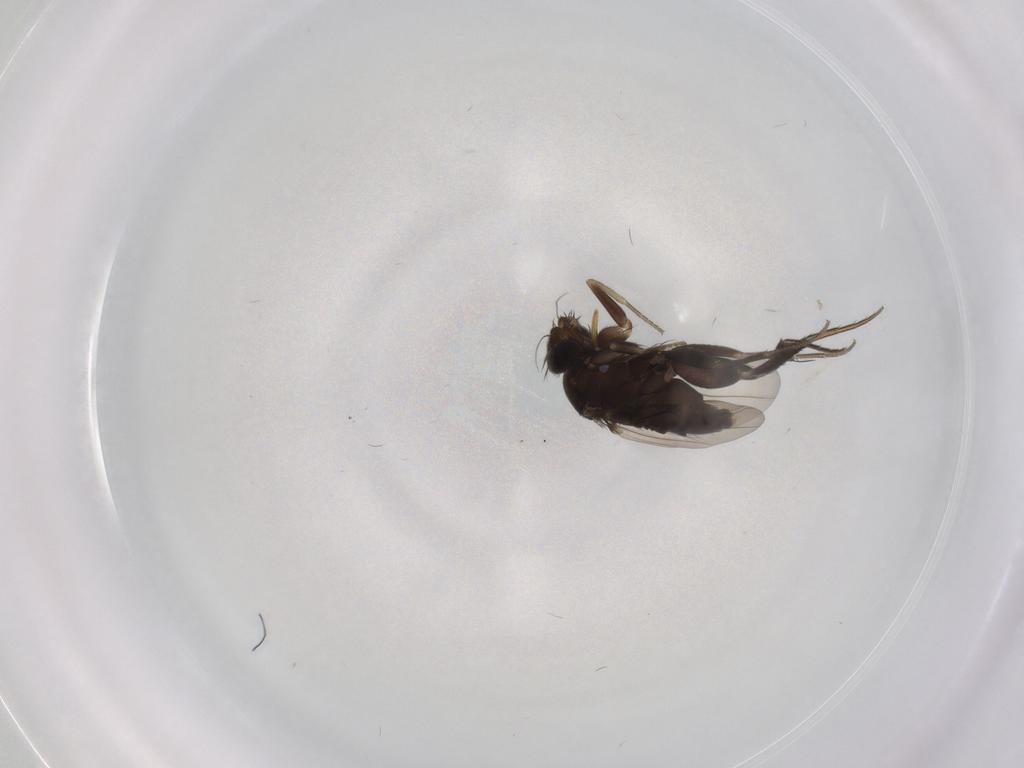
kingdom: Animalia
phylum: Arthropoda
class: Insecta
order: Diptera
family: Phoridae
